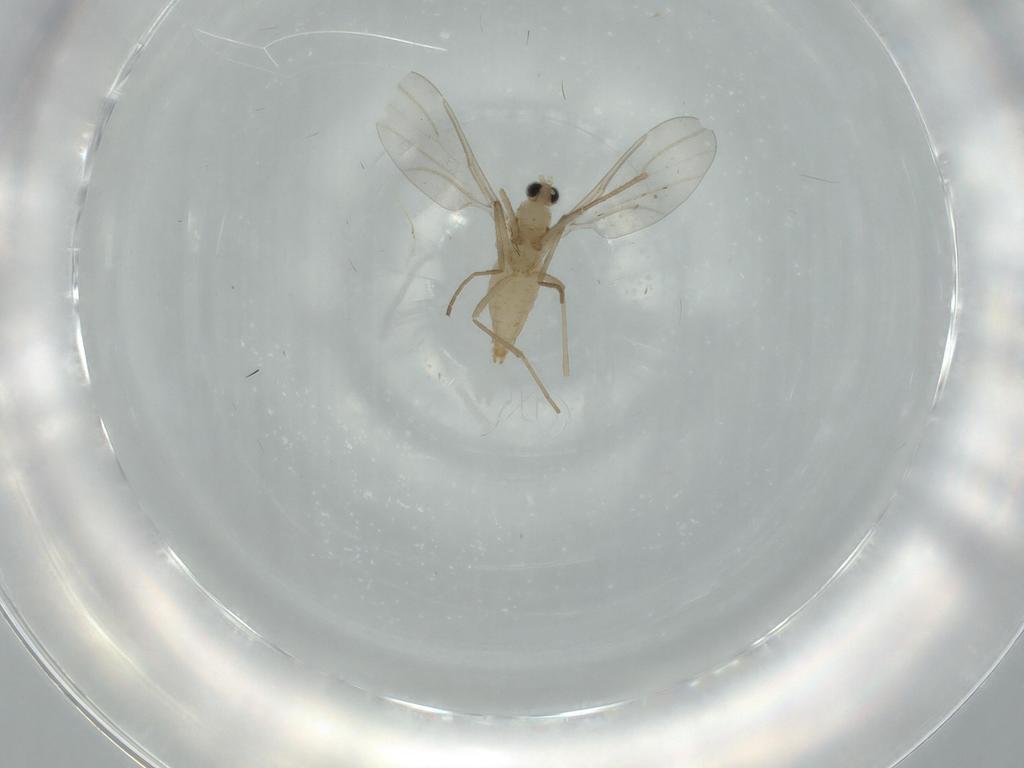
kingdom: Animalia
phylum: Arthropoda
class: Insecta
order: Diptera
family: Cecidomyiidae
